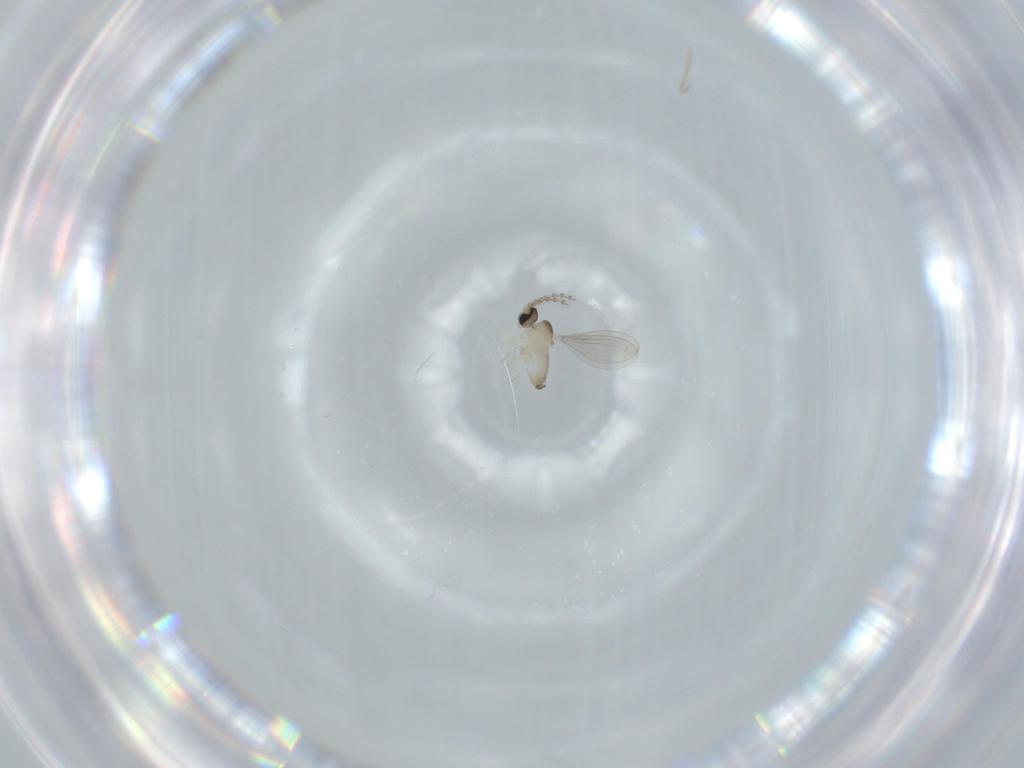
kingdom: Animalia
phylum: Arthropoda
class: Insecta
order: Diptera
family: Cecidomyiidae
